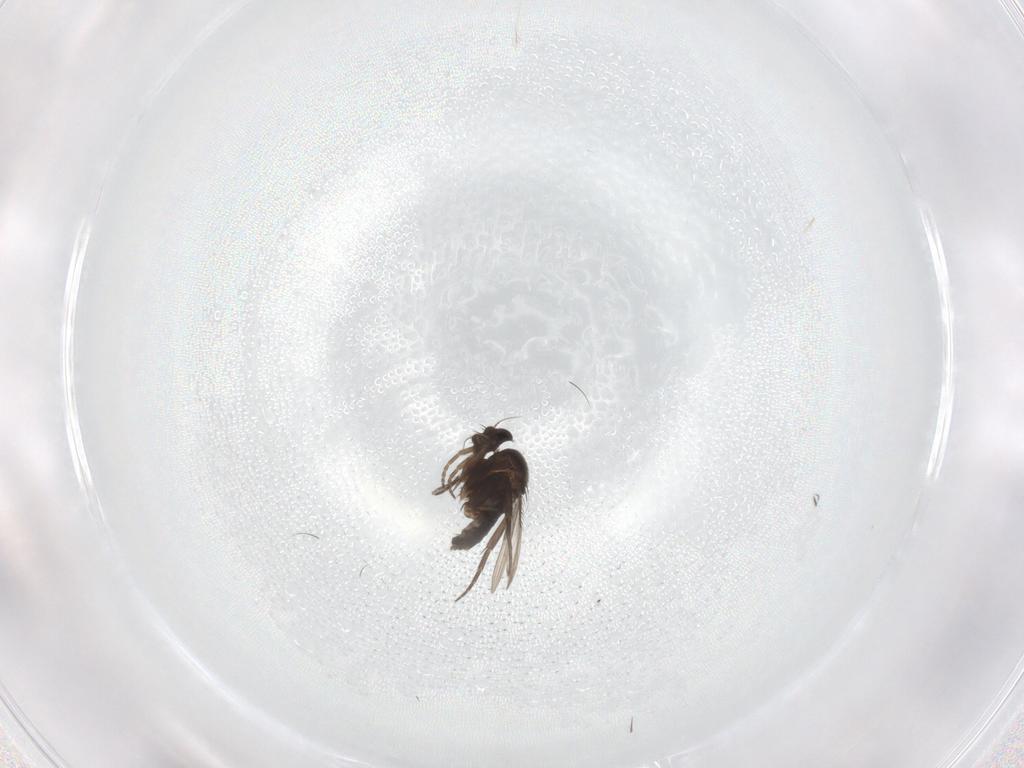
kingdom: Animalia
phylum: Arthropoda
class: Insecta
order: Diptera
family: Phoridae
